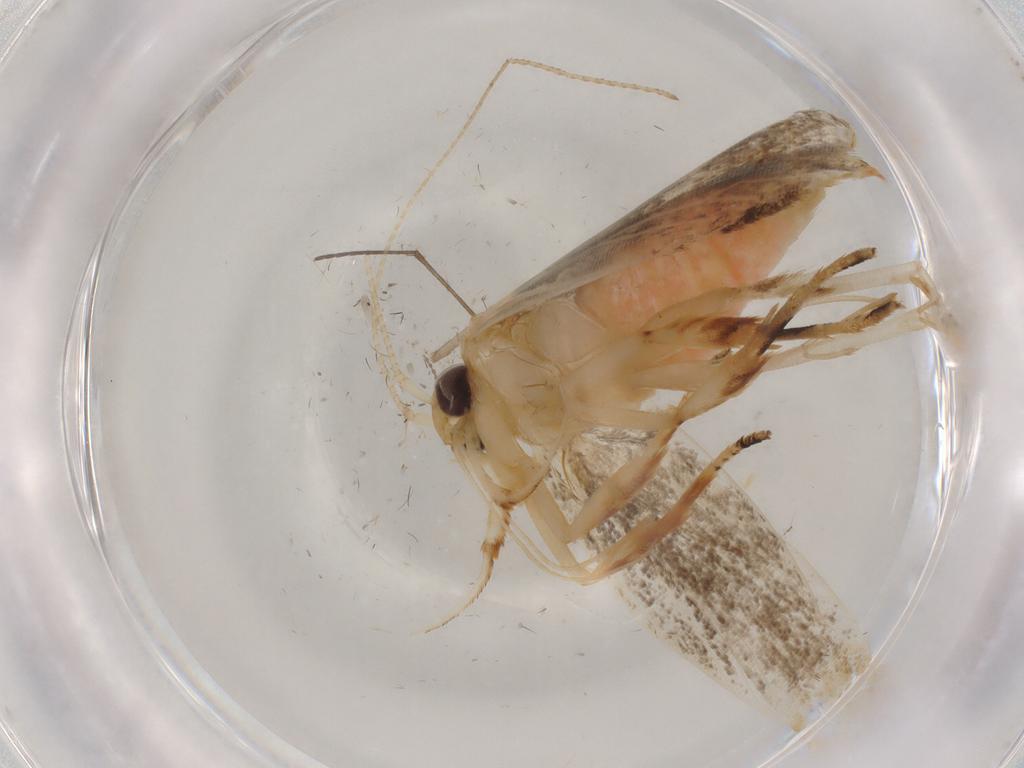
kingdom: Animalia
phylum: Arthropoda
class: Insecta
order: Lepidoptera
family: Gelechiidae
